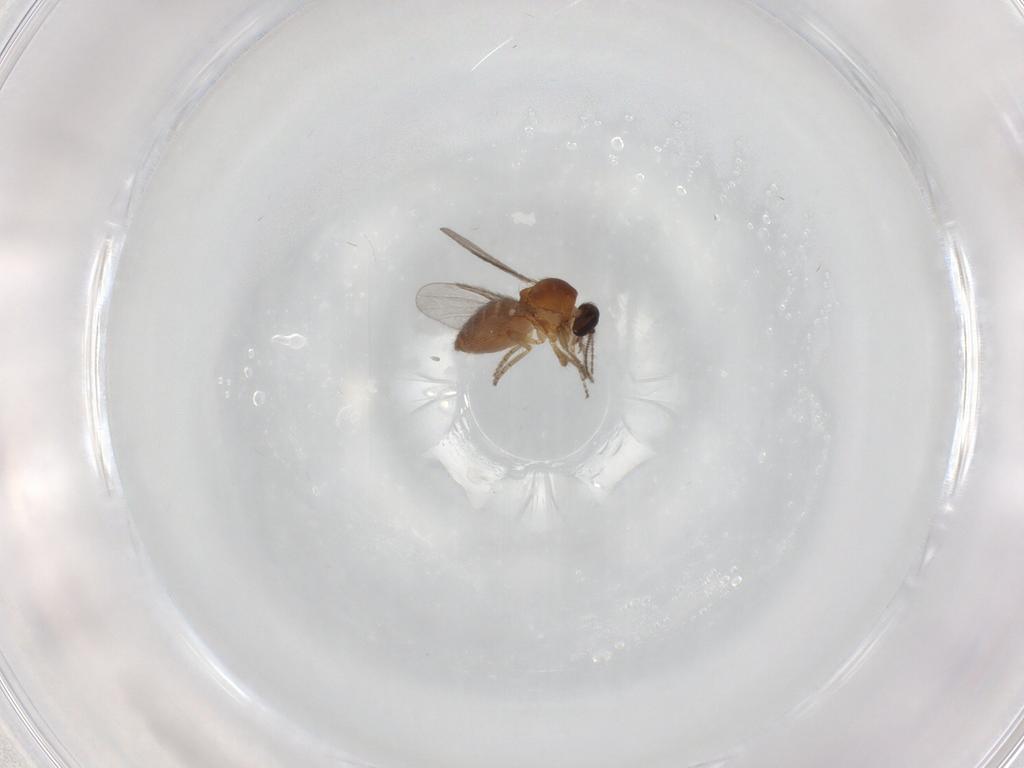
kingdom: Animalia
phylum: Arthropoda
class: Insecta
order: Diptera
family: Ceratopogonidae
